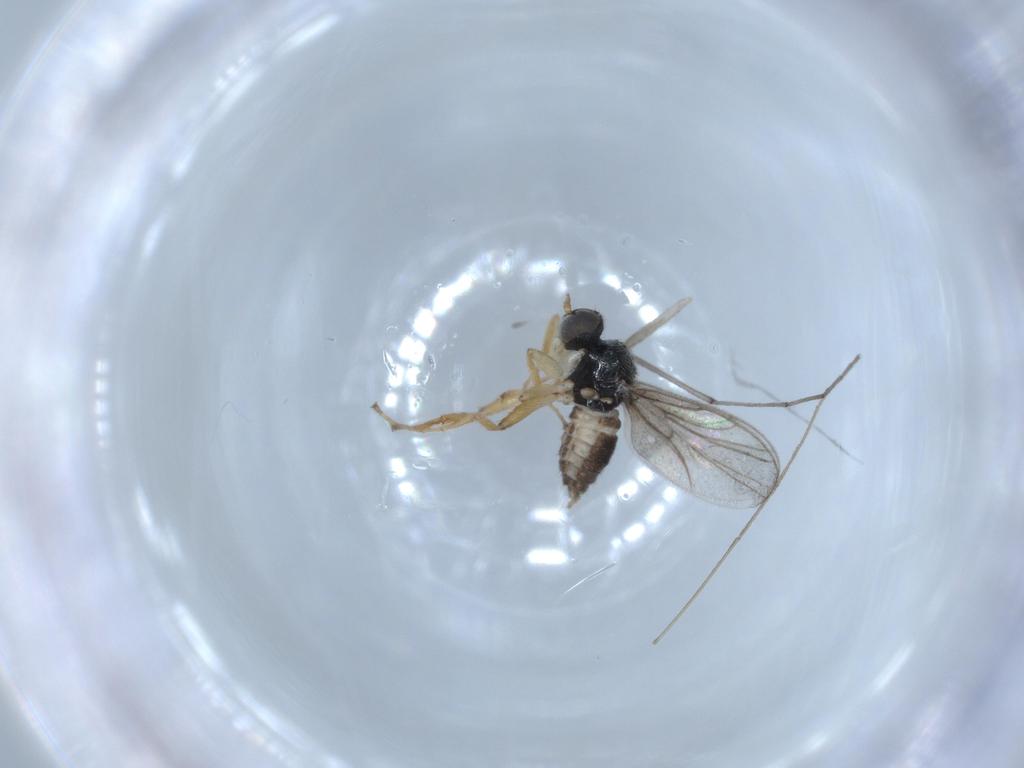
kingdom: Animalia
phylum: Arthropoda
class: Insecta
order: Diptera
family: Hybotidae
